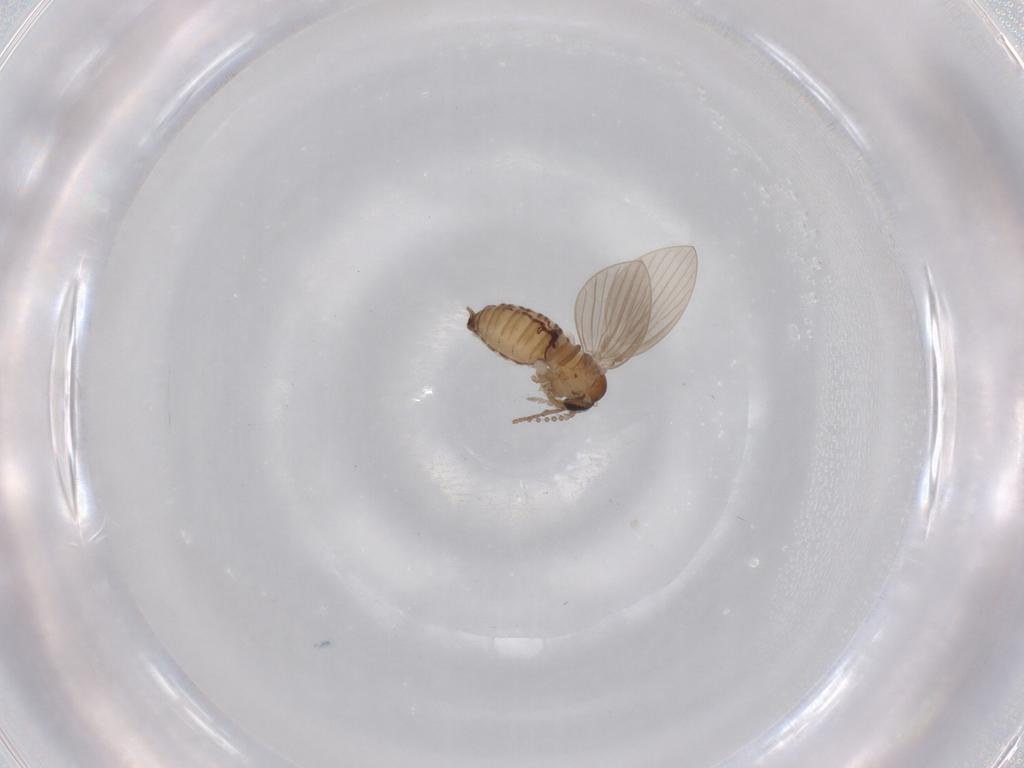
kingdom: Animalia
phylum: Arthropoda
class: Insecta
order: Diptera
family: Psychodidae
